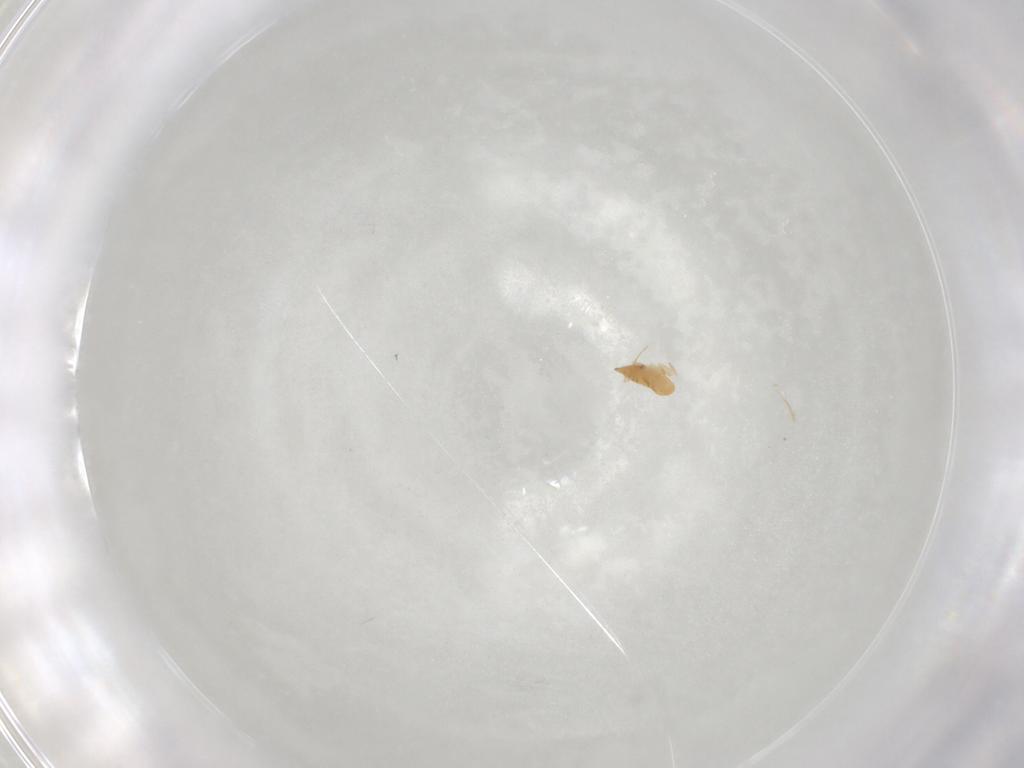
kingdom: Animalia
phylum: Arthropoda
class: Insecta
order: Hymenoptera
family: Trichogrammatidae
